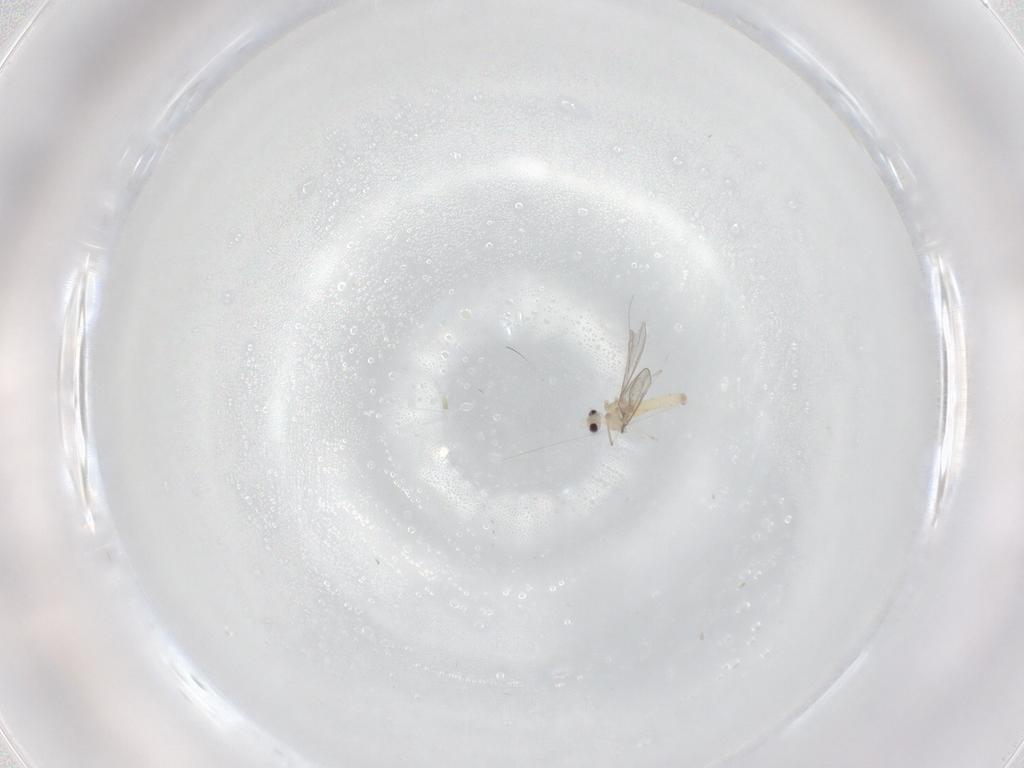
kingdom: Animalia
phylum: Arthropoda
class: Insecta
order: Diptera
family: Cecidomyiidae
